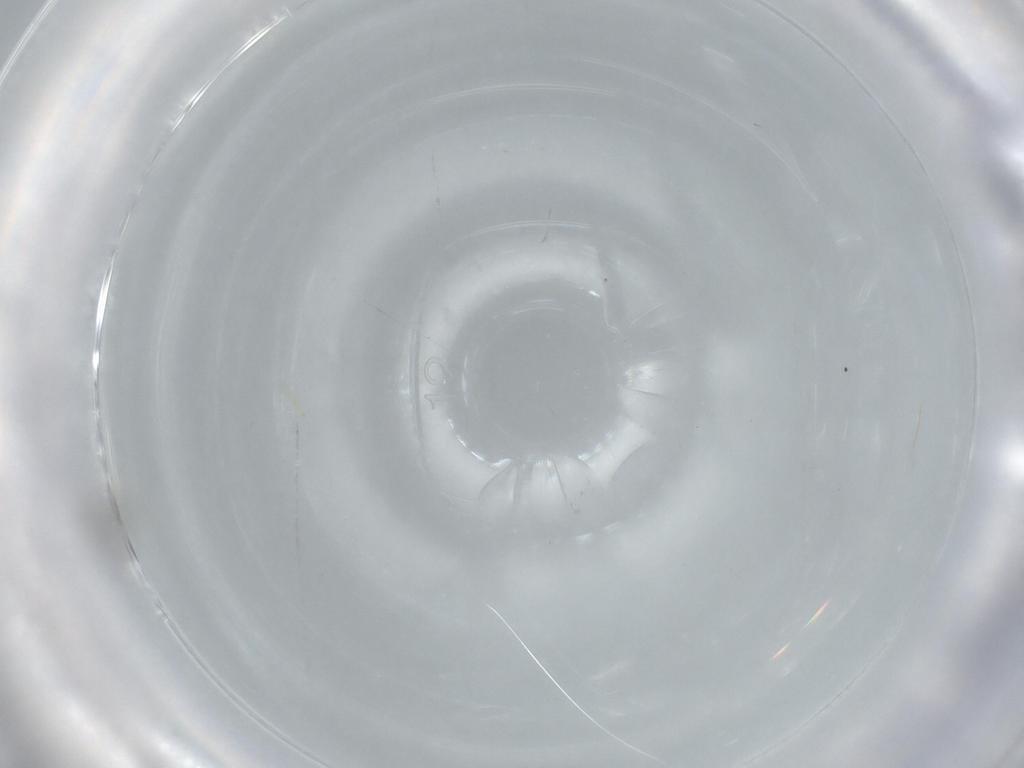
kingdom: Animalia
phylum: Arthropoda
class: Insecta
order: Hymenoptera
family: Mymaridae
